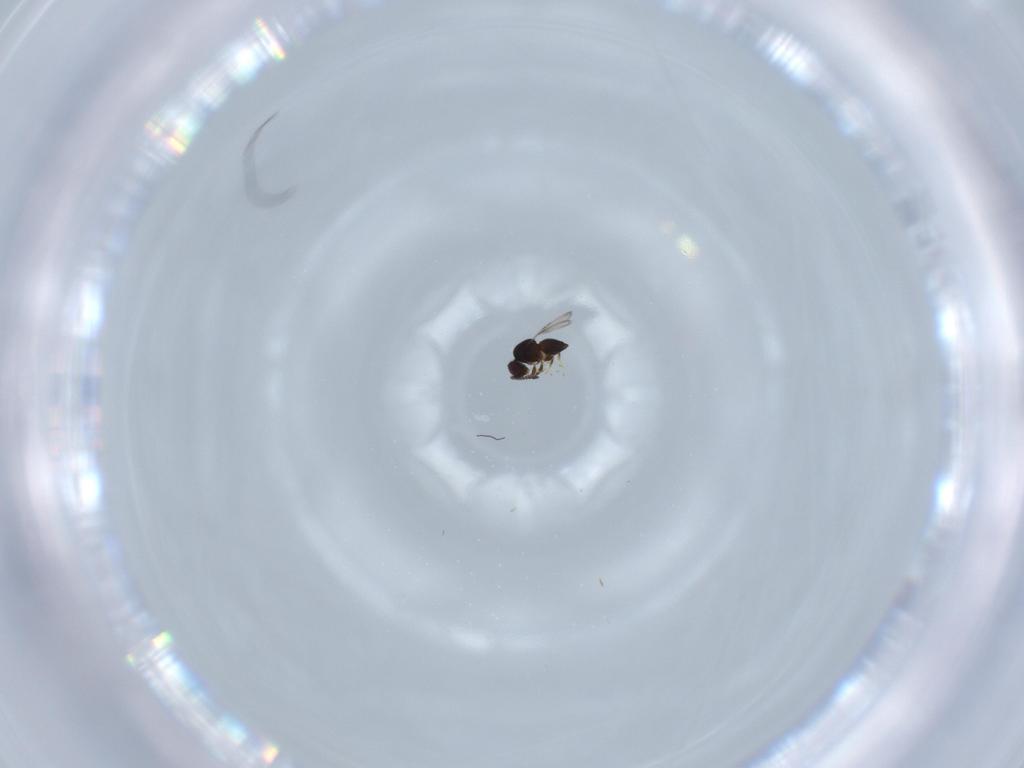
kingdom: Animalia
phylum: Arthropoda
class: Insecta
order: Hymenoptera
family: Ceraphronidae
